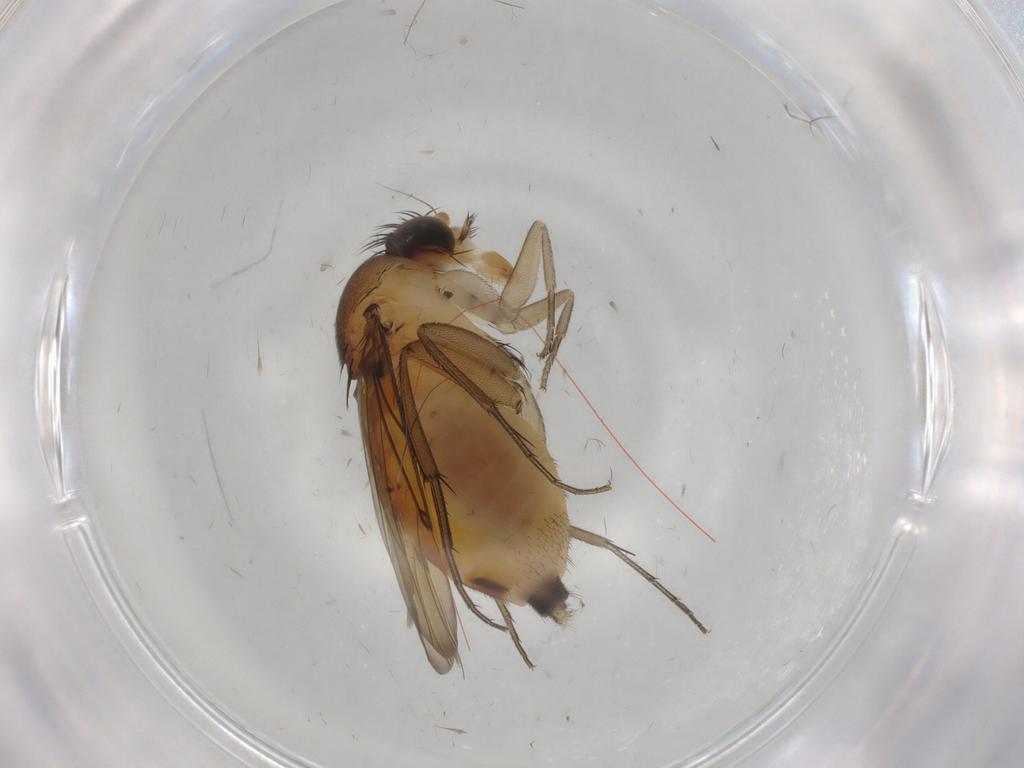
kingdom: Animalia
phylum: Arthropoda
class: Insecta
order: Diptera
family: Phoridae
